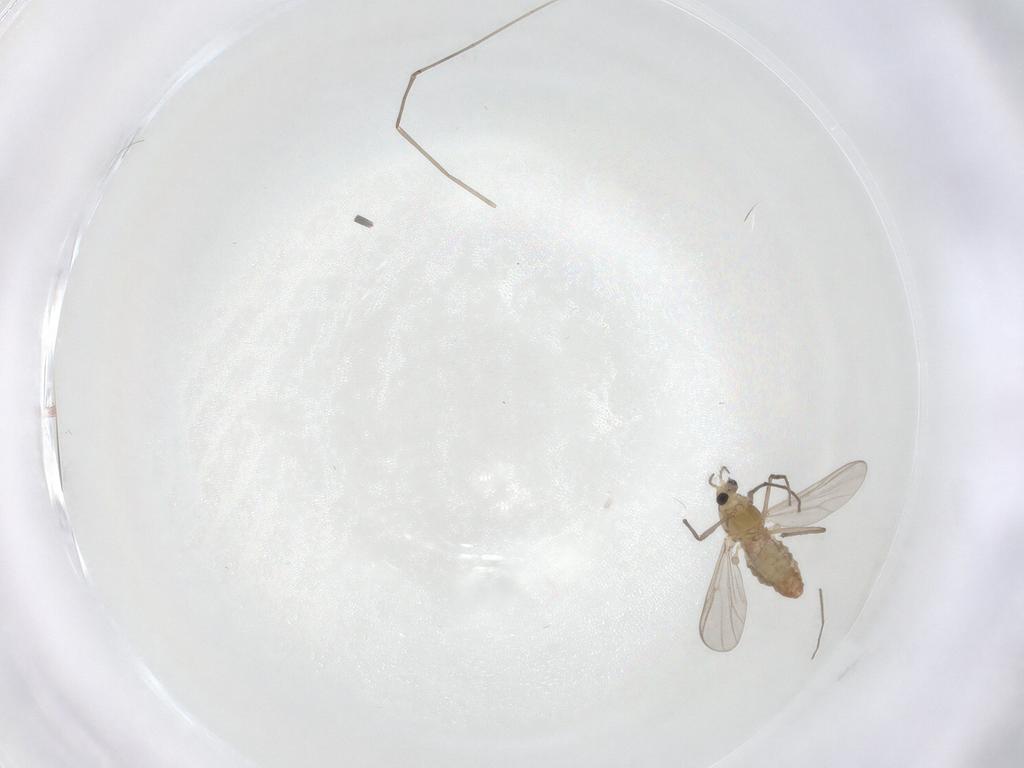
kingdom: Animalia
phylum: Arthropoda
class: Insecta
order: Diptera
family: Chironomidae
